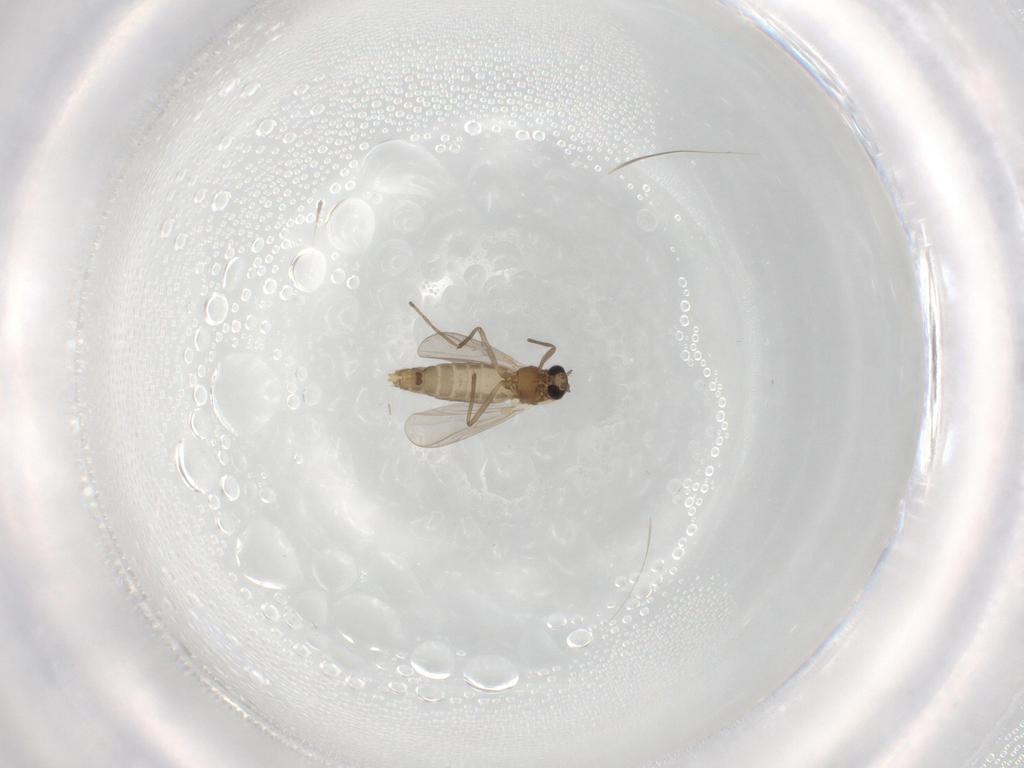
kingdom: Animalia
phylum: Arthropoda
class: Insecta
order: Diptera
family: Chironomidae
